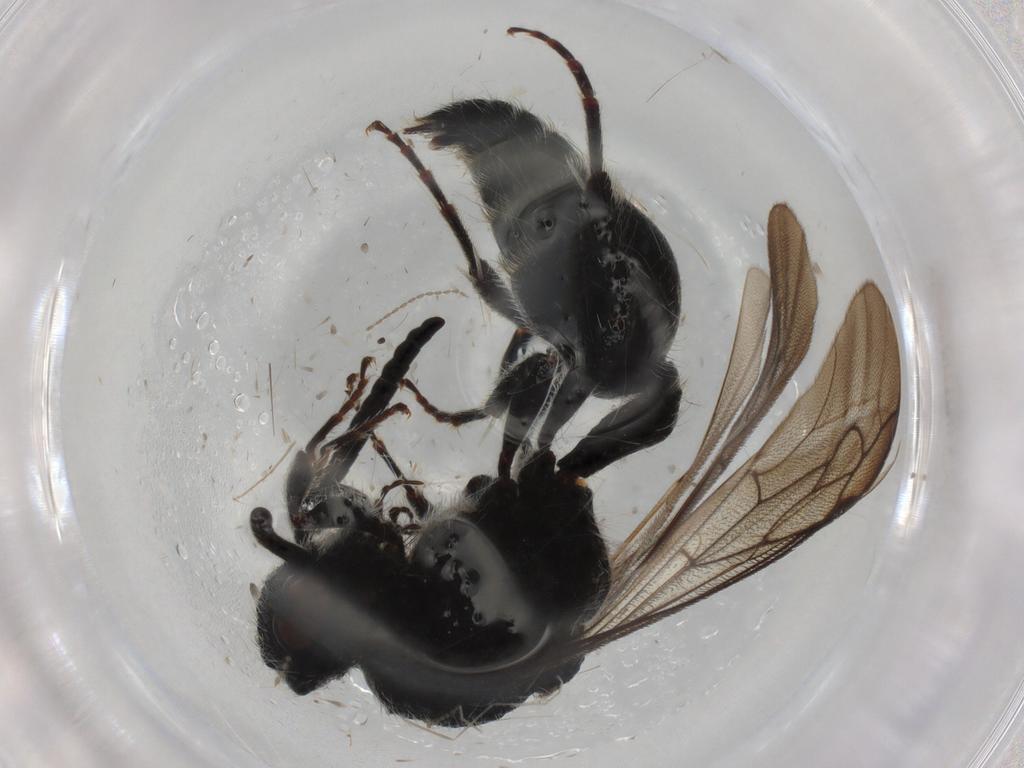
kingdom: Animalia
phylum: Arthropoda
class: Insecta
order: Hymenoptera
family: Mutillidae
